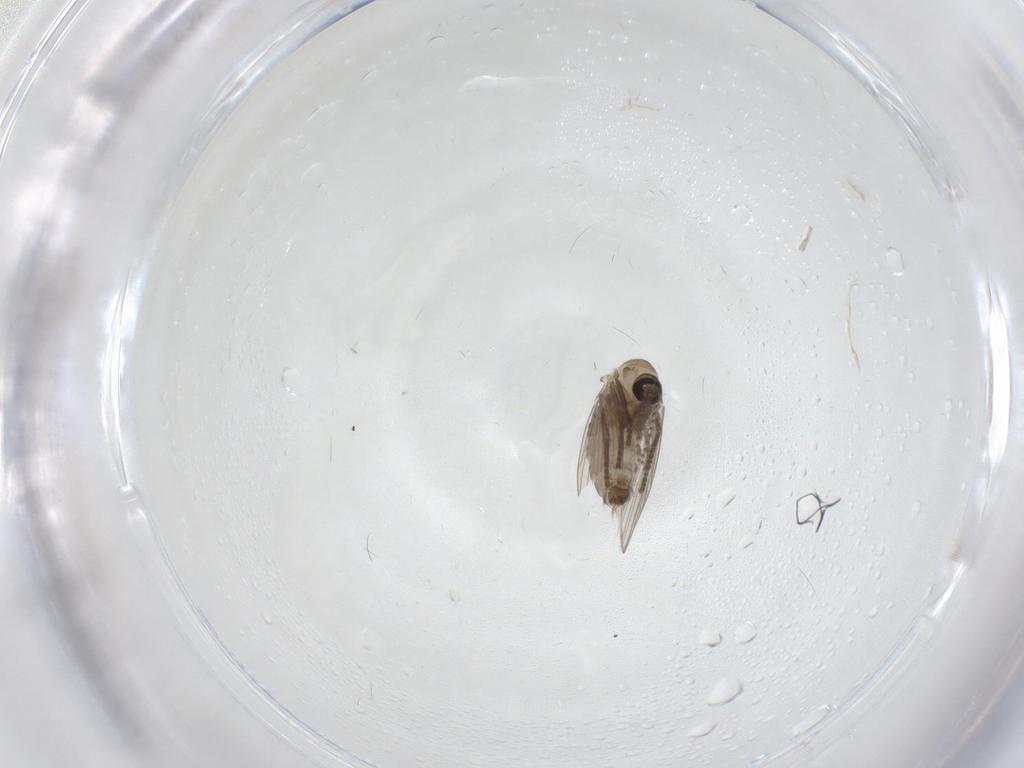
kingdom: Animalia
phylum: Arthropoda
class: Insecta
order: Diptera
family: Psychodidae
